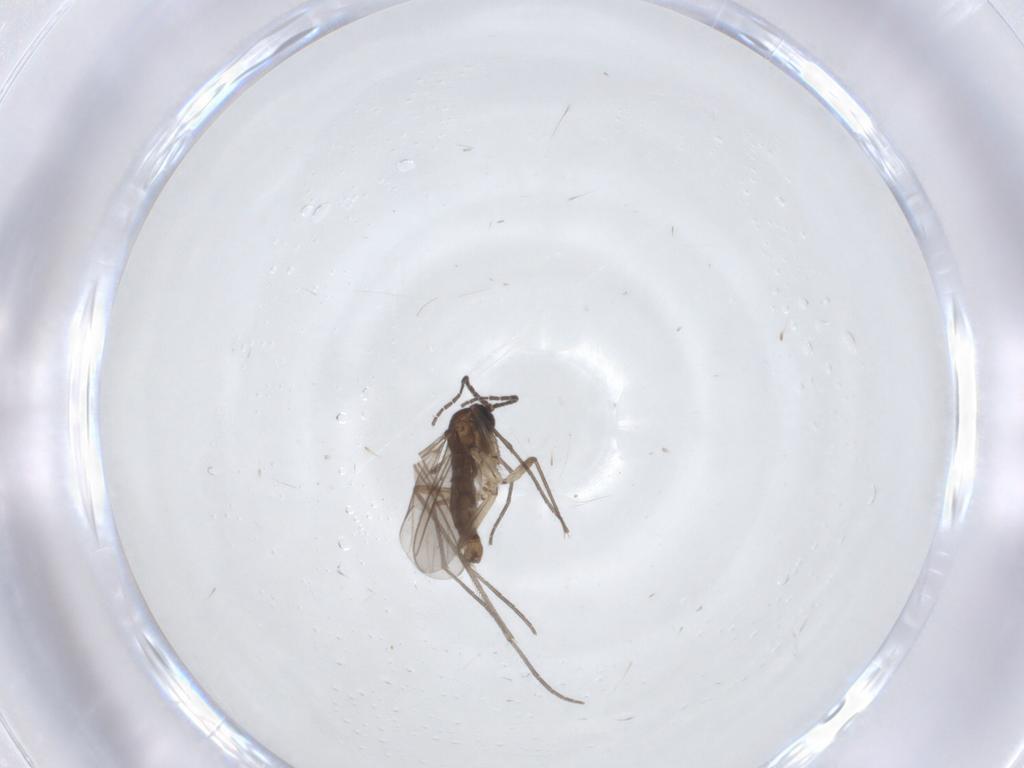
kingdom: Animalia
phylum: Arthropoda
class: Insecta
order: Diptera
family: Sciaridae
